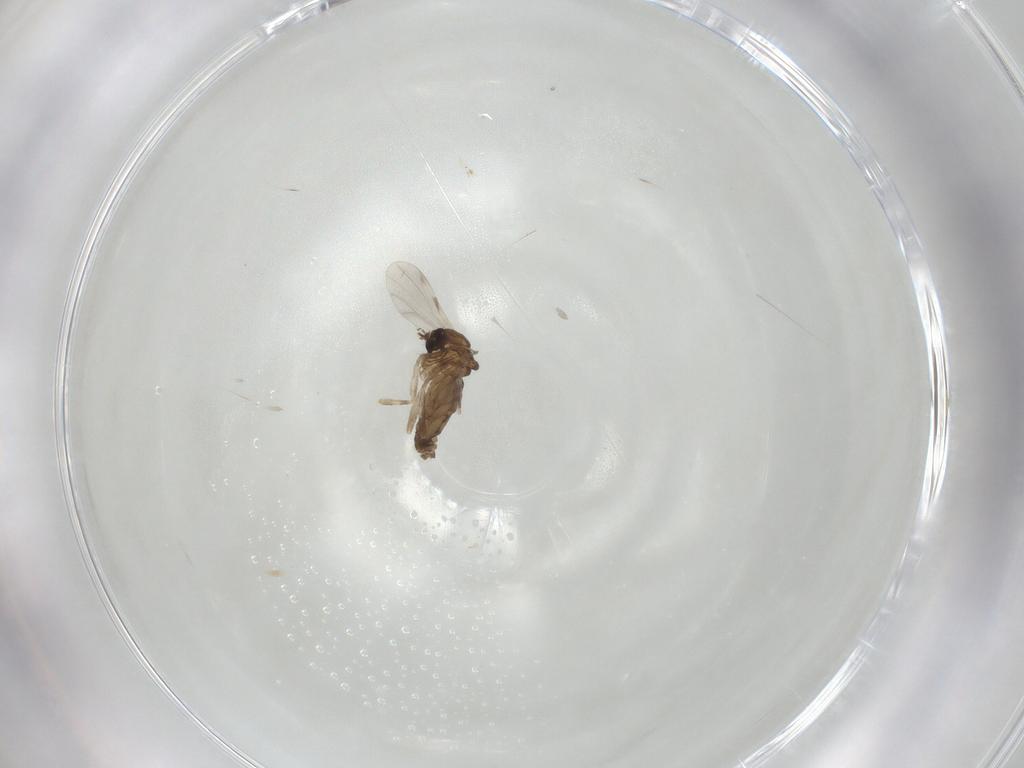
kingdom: Animalia
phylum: Arthropoda
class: Insecta
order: Diptera
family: Ceratopogonidae
